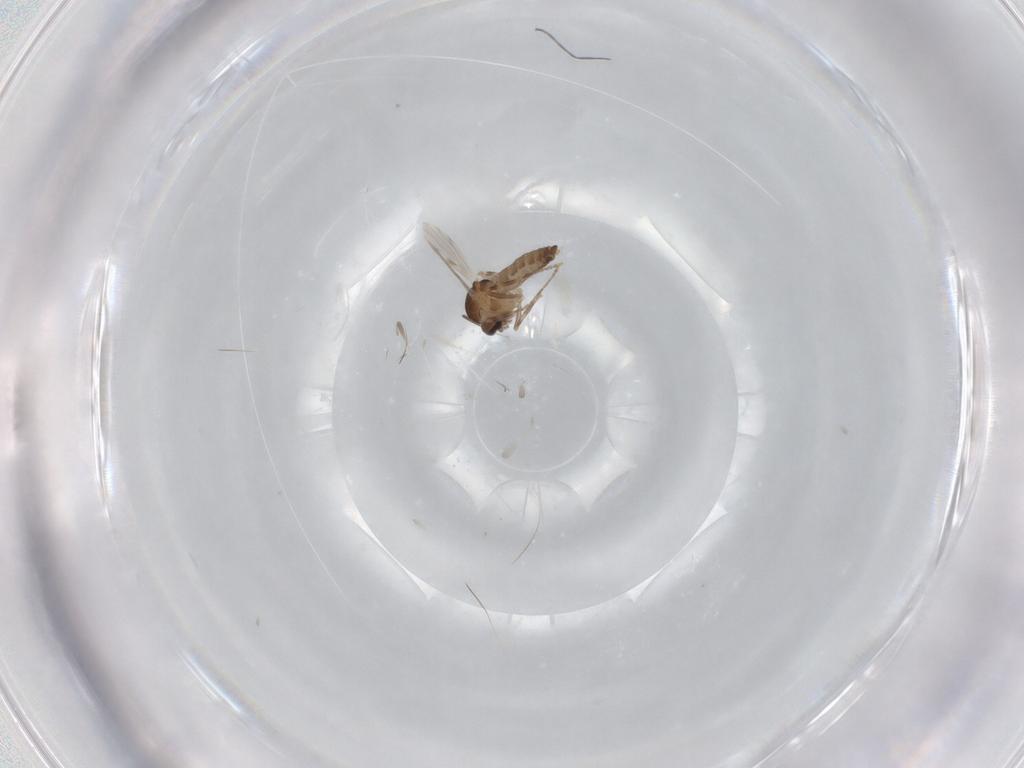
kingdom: Animalia
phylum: Arthropoda
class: Insecta
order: Diptera
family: Ceratopogonidae
